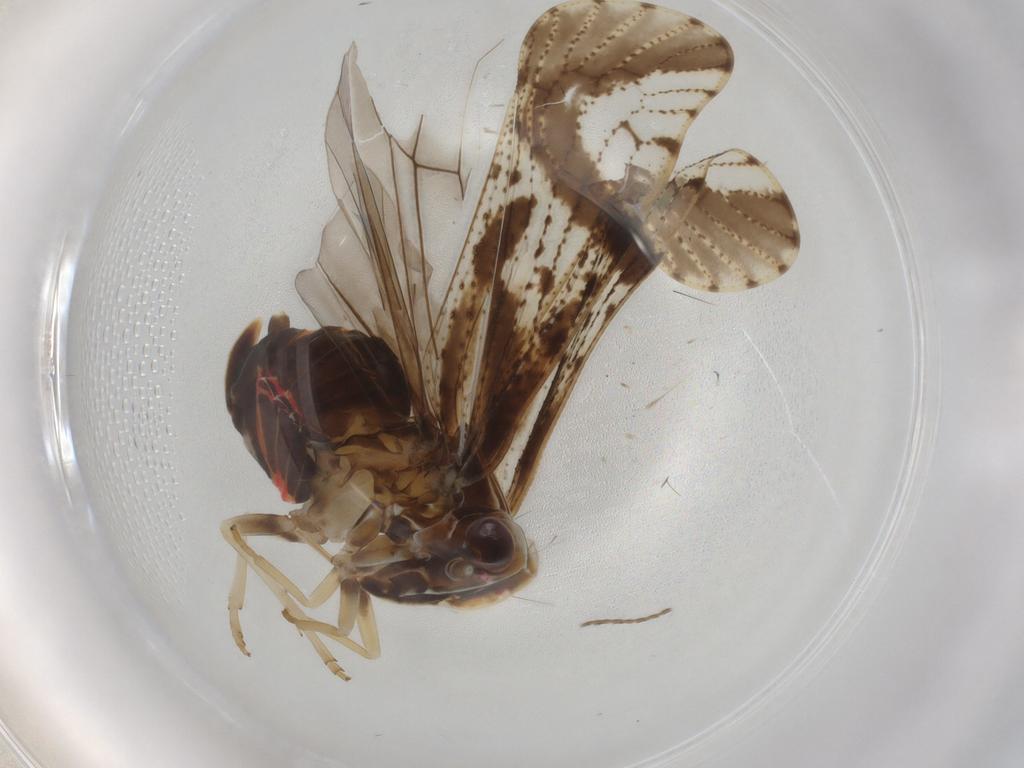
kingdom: Animalia
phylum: Arthropoda
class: Insecta
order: Hemiptera
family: Cixiidae
